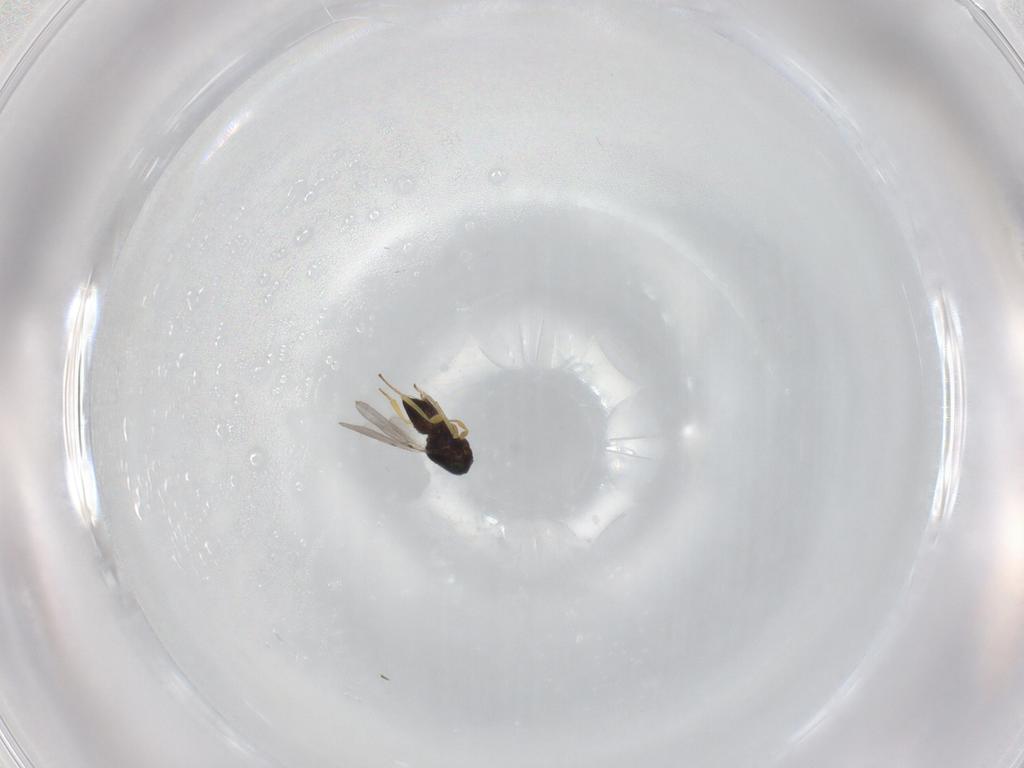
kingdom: Animalia
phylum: Arthropoda
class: Insecta
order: Hymenoptera
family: Encyrtidae
